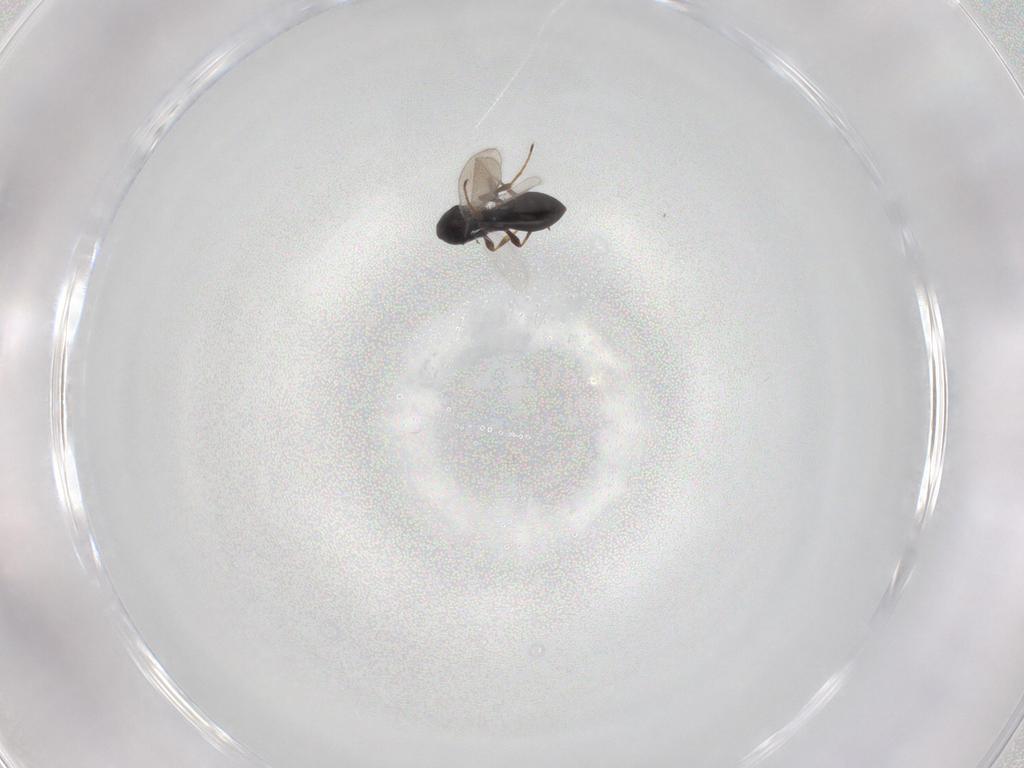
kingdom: Animalia
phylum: Arthropoda
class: Insecta
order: Hymenoptera
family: Platygastridae
